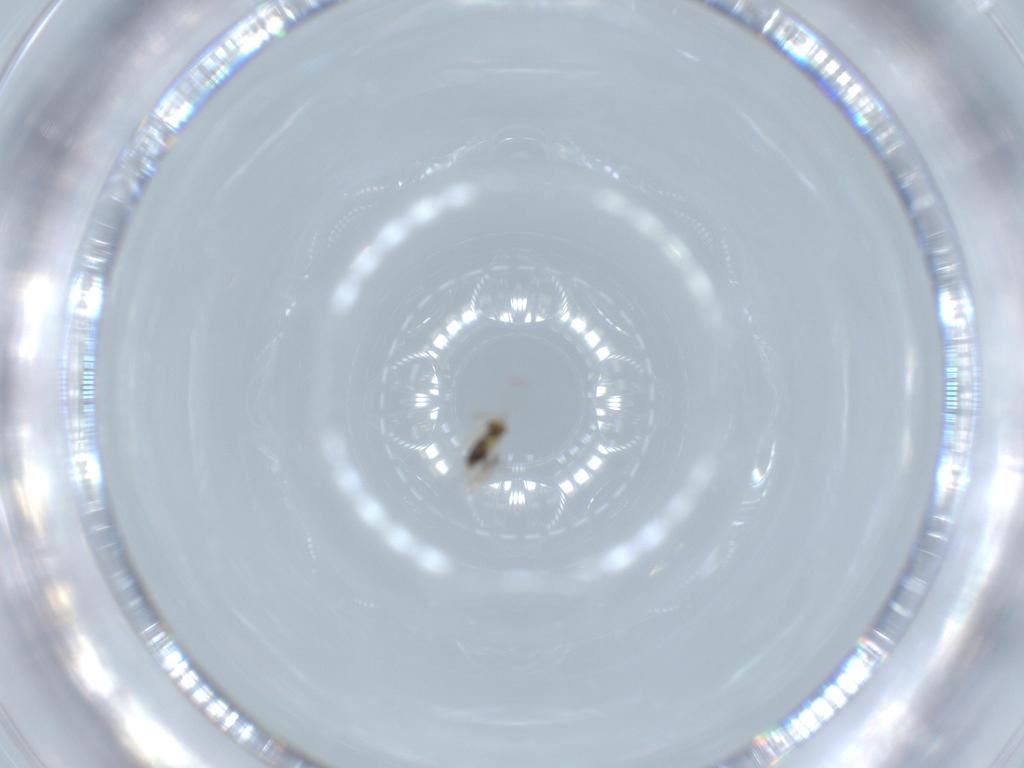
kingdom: Animalia
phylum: Arthropoda
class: Insecta
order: Hymenoptera
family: Aphelinidae
